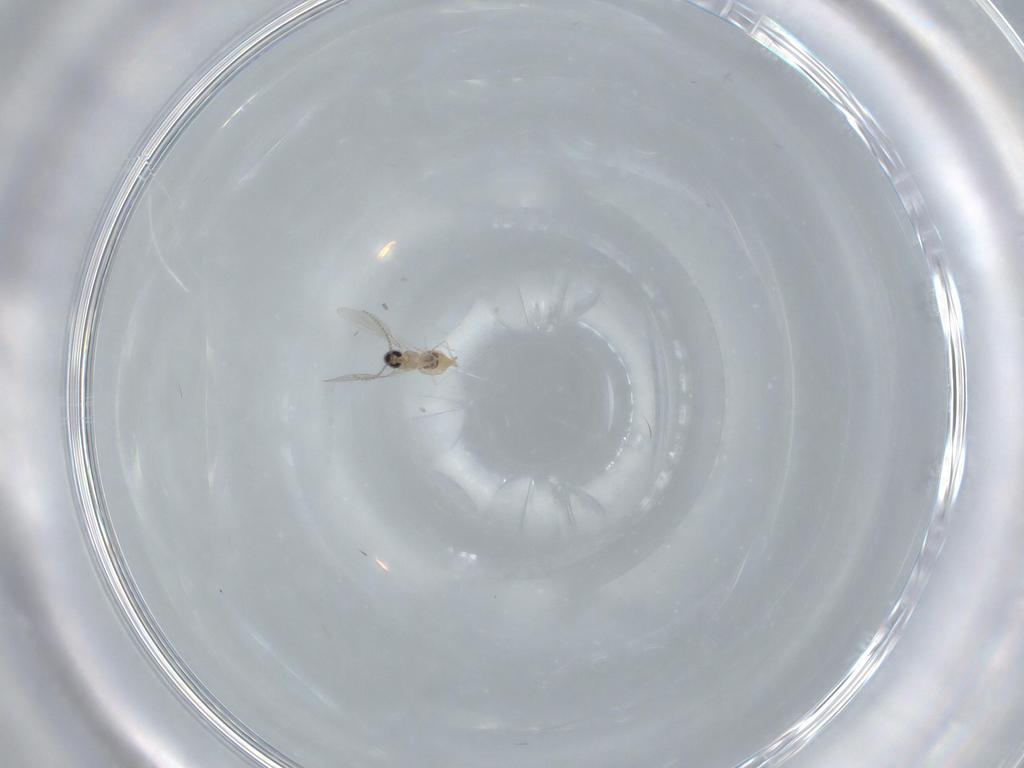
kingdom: Animalia
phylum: Arthropoda
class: Insecta
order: Diptera
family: Cecidomyiidae
